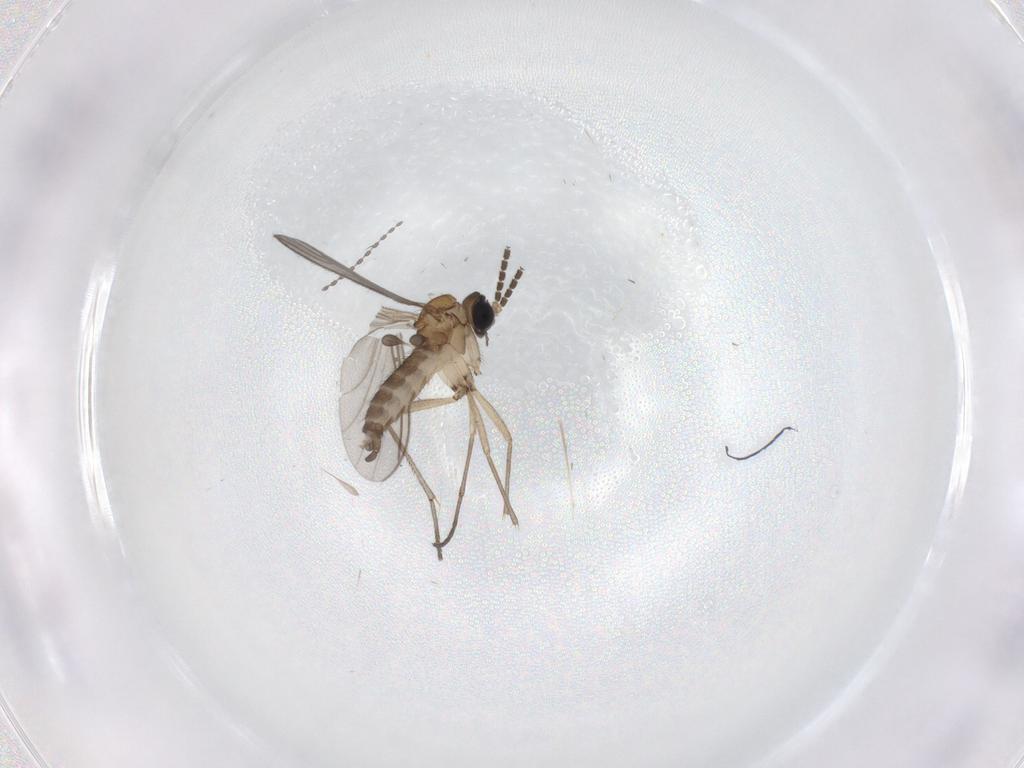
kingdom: Animalia
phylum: Arthropoda
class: Insecta
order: Diptera
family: Sciaridae
